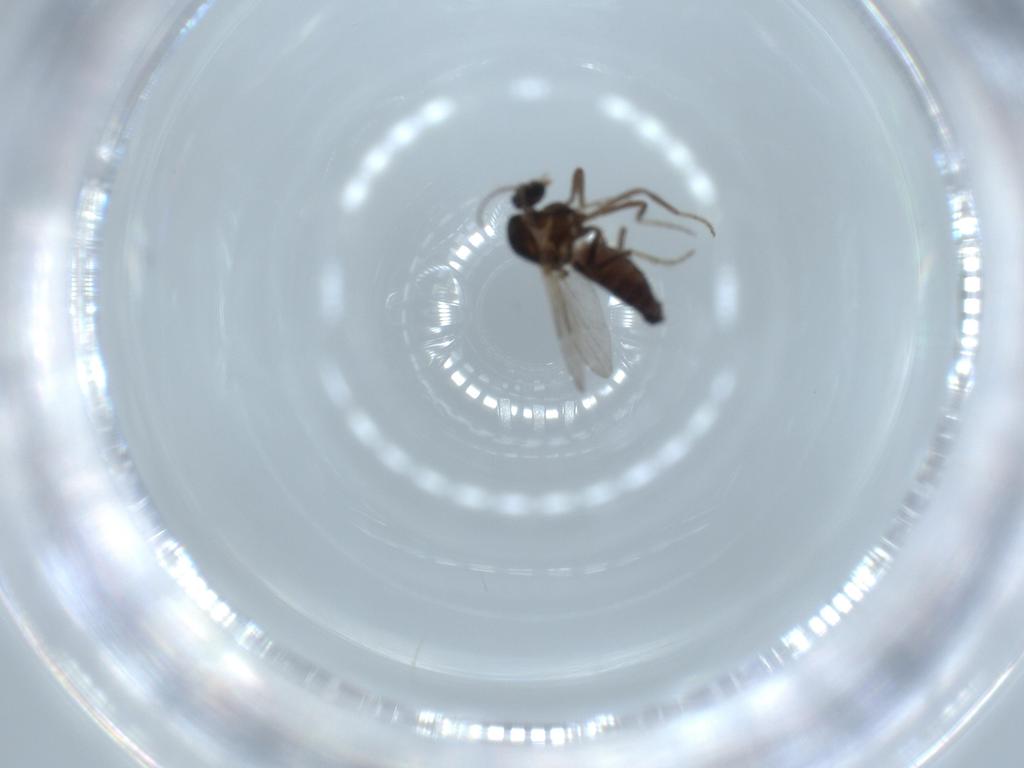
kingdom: Animalia
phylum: Arthropoda
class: Insecta
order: Diptera
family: Ceratopogonidae
